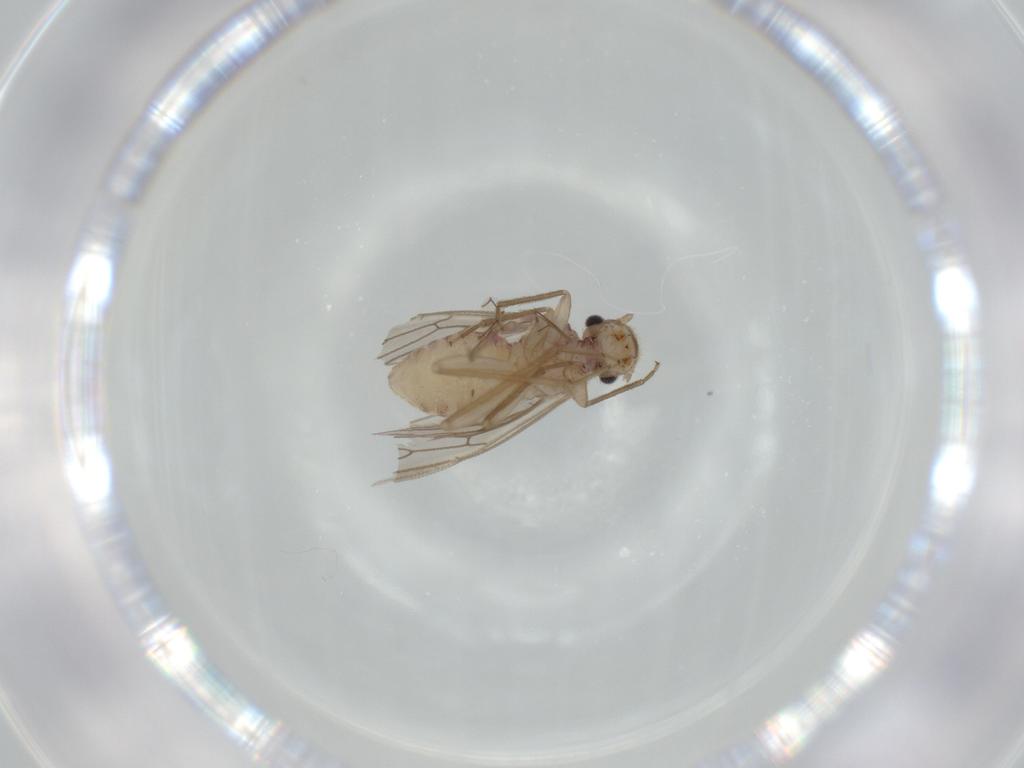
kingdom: Animalia
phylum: Arthropoda
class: Insecta
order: Psocodea
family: Cladiopsocidae
